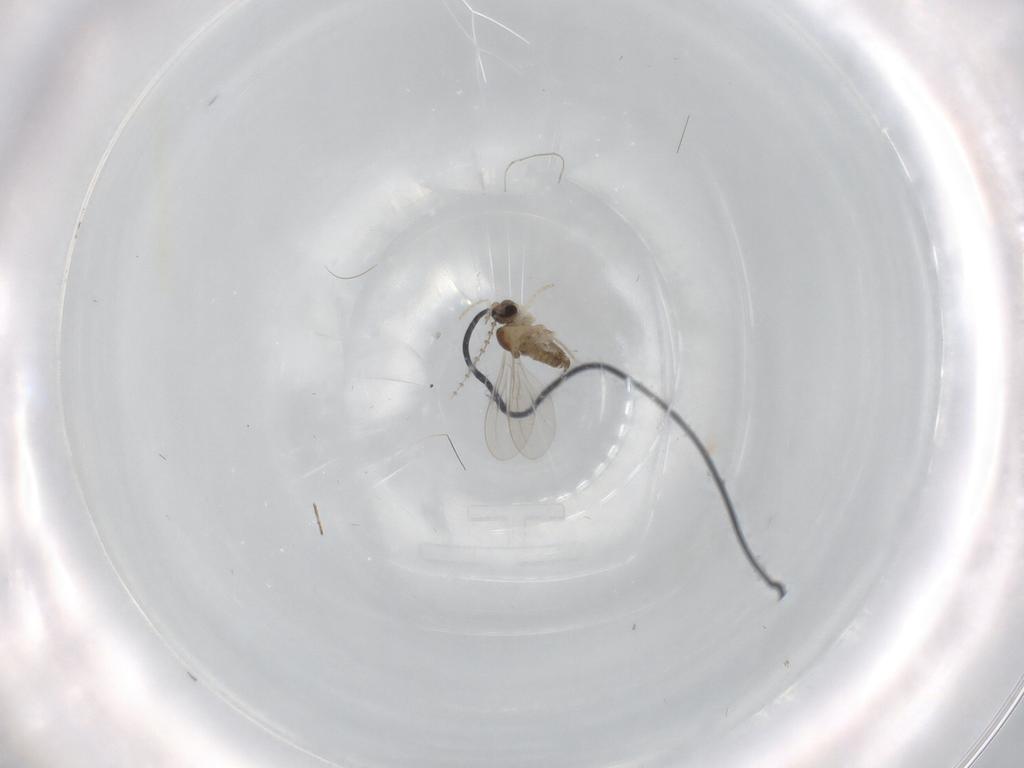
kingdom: Animalia
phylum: Arthropoda
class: Insecta
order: Diptera
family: Cecidomyiidae
